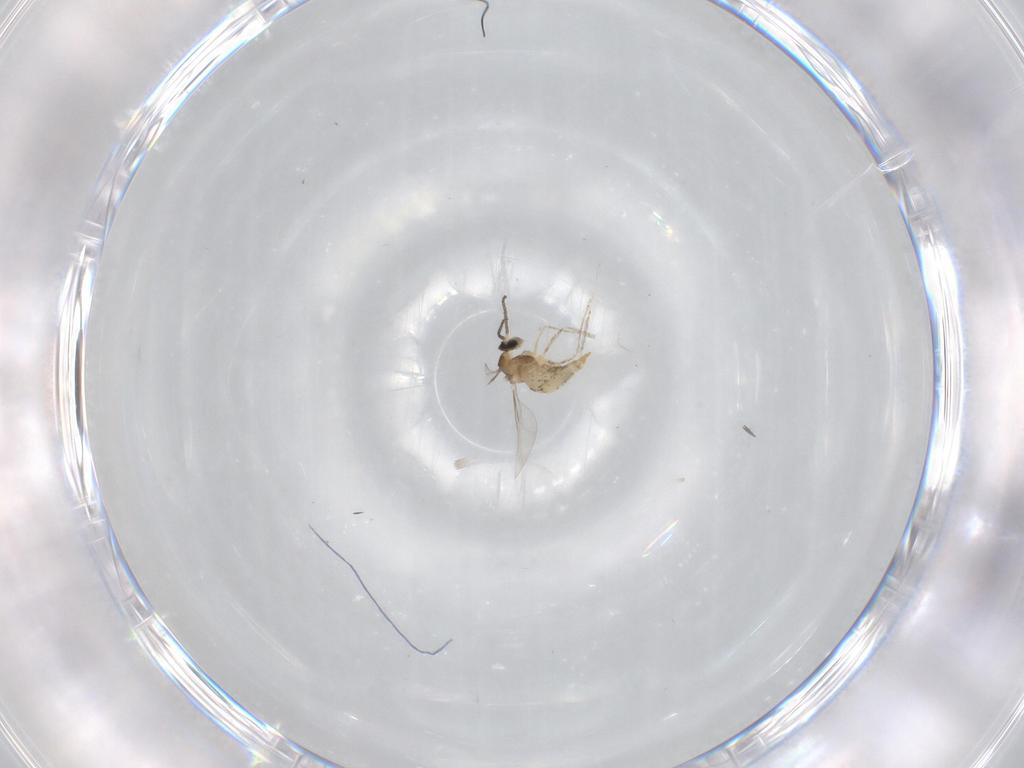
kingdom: Animalia
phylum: Arthropoda
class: Insecta
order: Diptera
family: Cecidomyiidae
